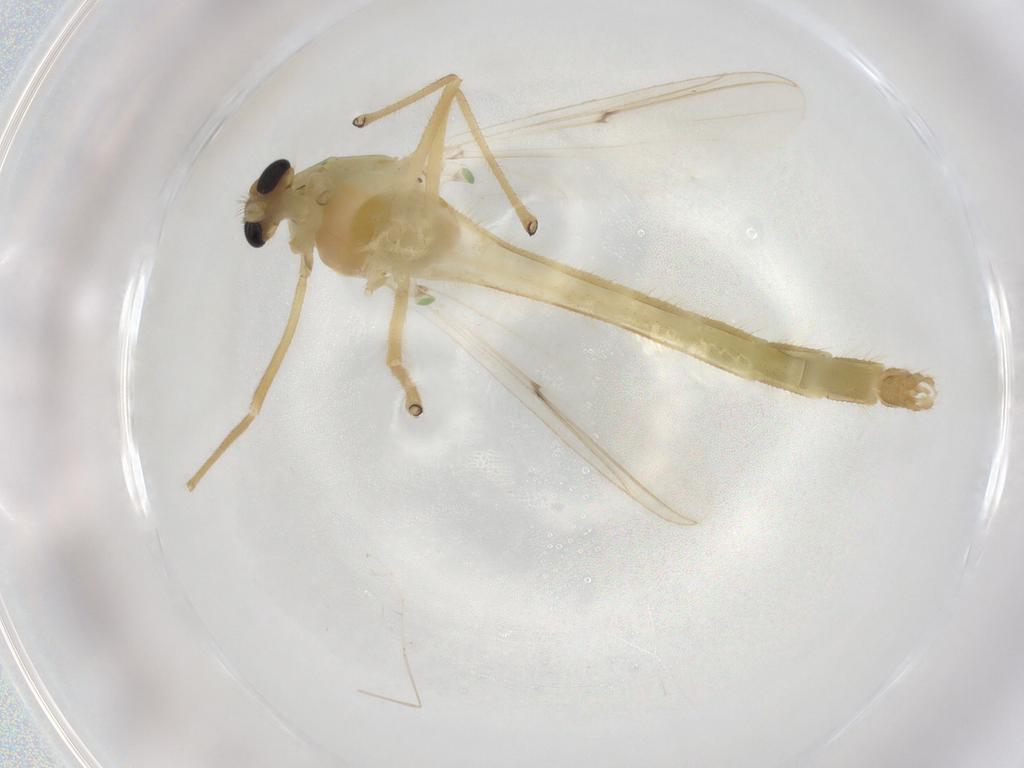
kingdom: Animalia
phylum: Arthropoda
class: Insecta
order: Diptera
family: Chironomidae
